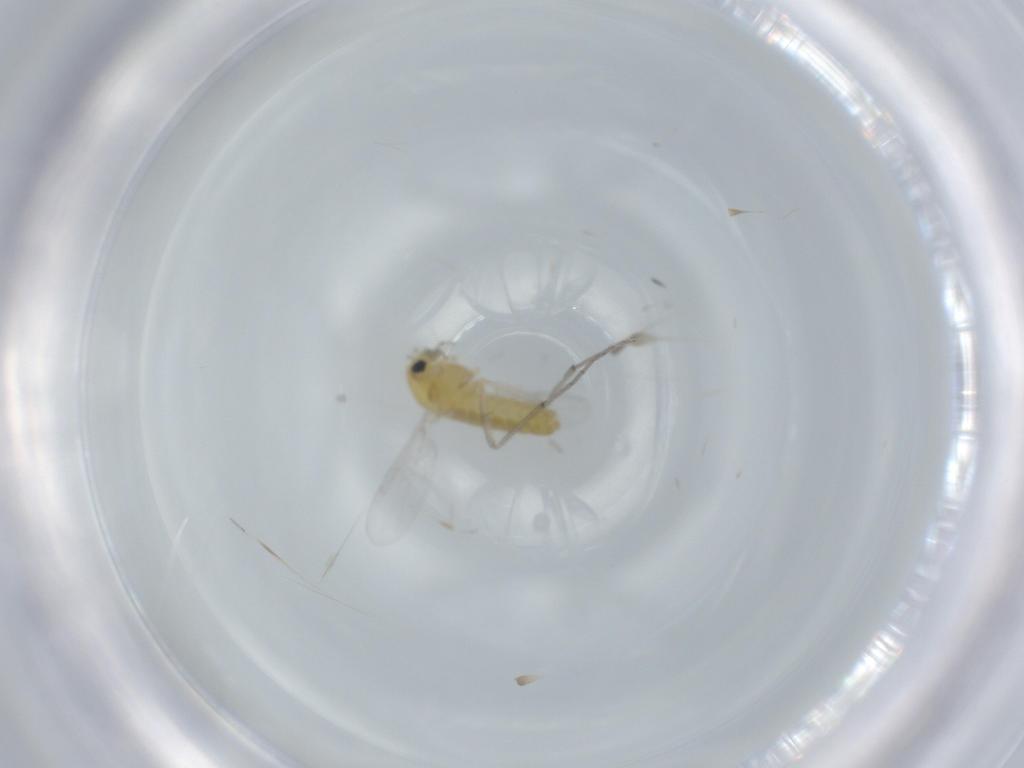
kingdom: Animalia
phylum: Arthropoda
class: Insecta
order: Diptera
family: Chironomidae
